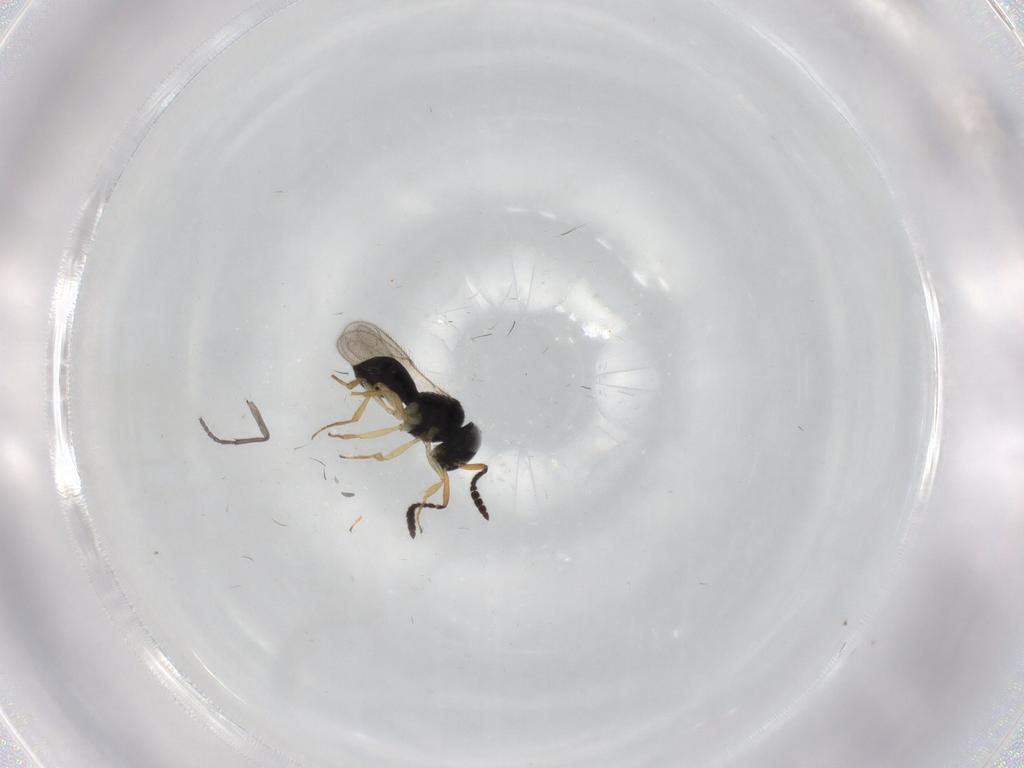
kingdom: Animalia
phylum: Arthropoda
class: Insecta
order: Hymenoptera
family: Scelionidae
